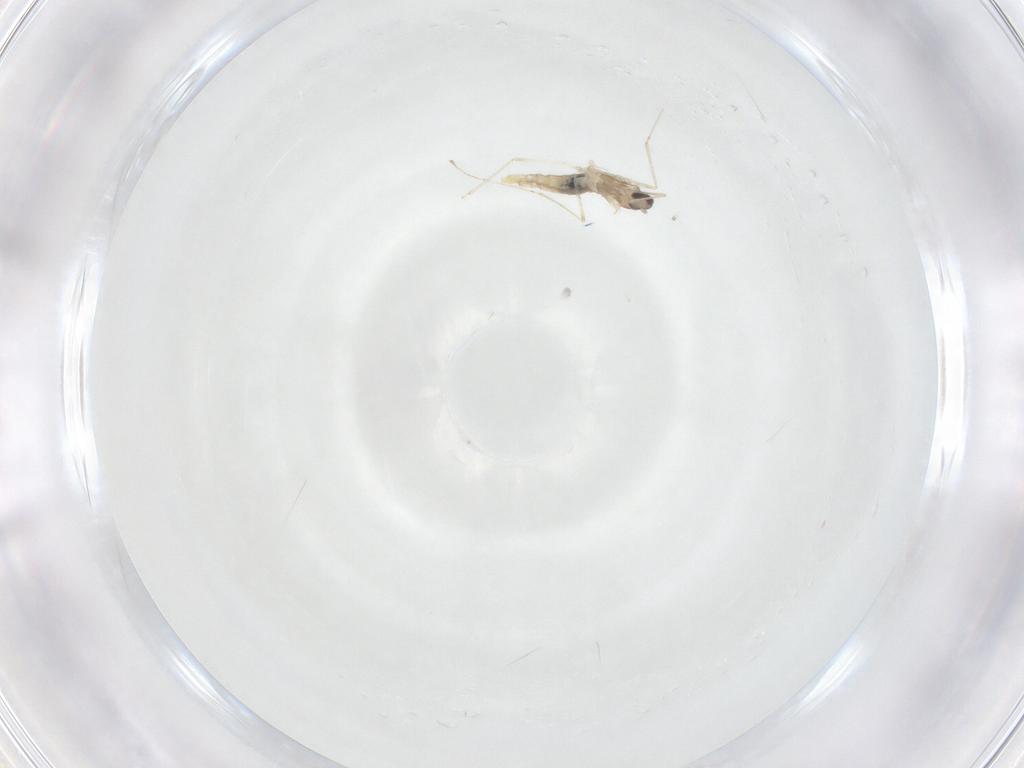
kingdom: Animalia
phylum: Arthropoda
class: Insecta
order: Diptera
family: Cecidomyiidae
